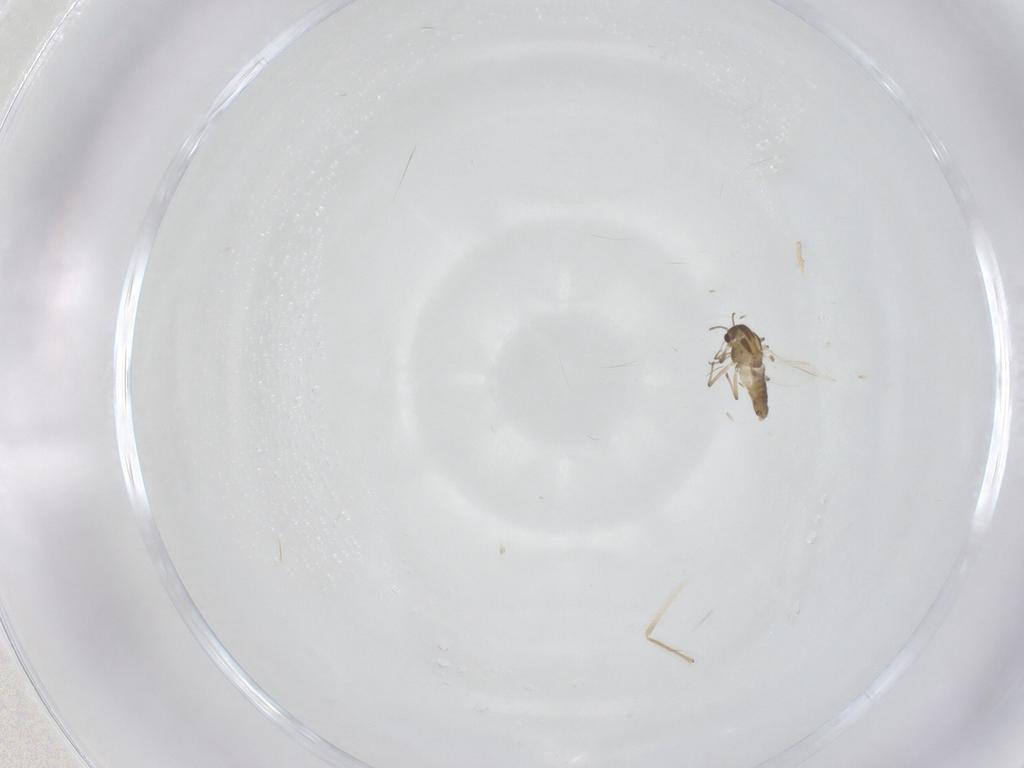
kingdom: Animalia
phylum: Arthropoda
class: Insecta
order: Diptera
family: Chironomidae
